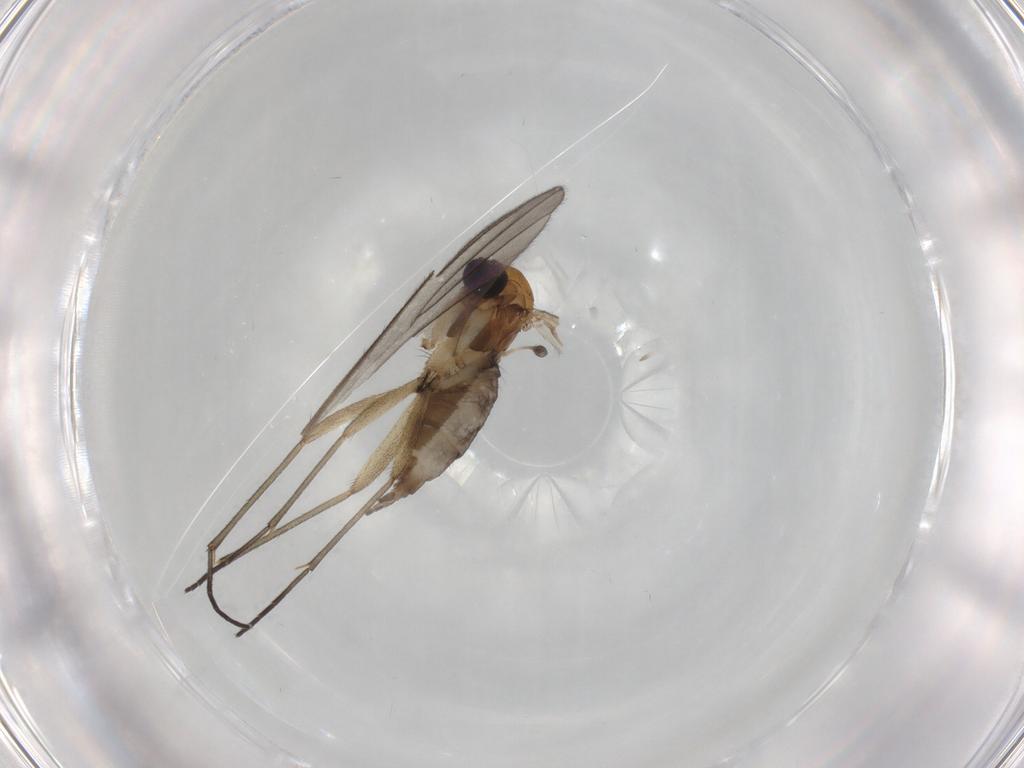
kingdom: Animalia
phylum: Arthropoda
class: Insecta
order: Diptera
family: Sciaridae
